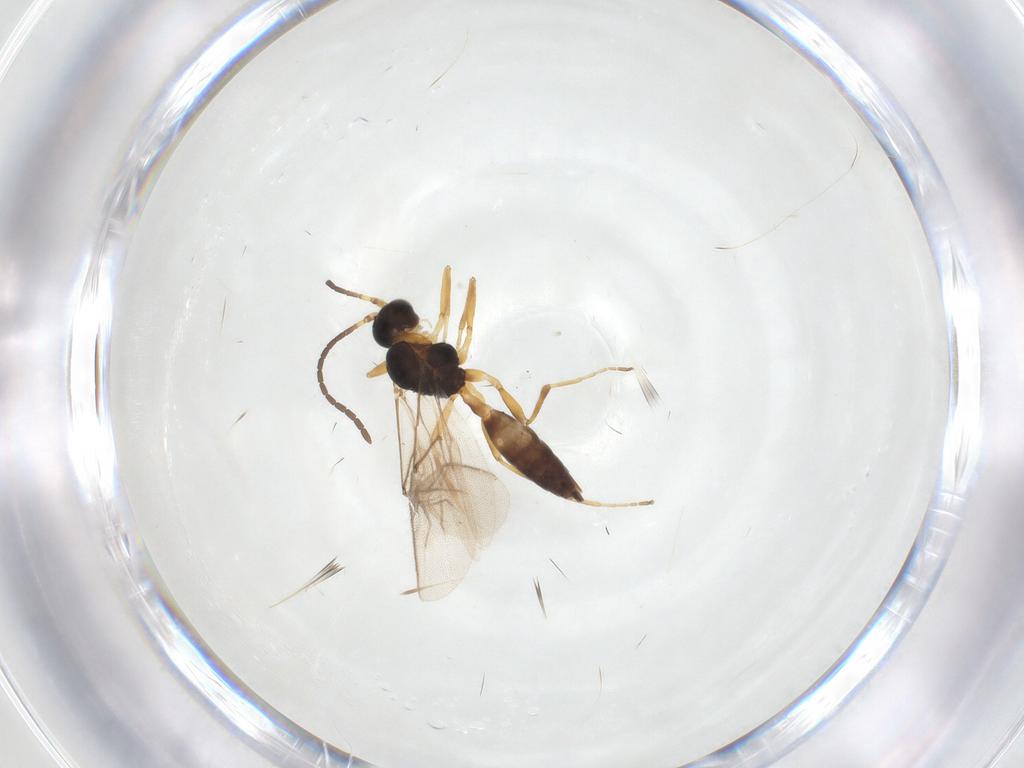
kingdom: Animalia
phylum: Arthropoda
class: Insecta
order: Hymenoptera
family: Braconidae
